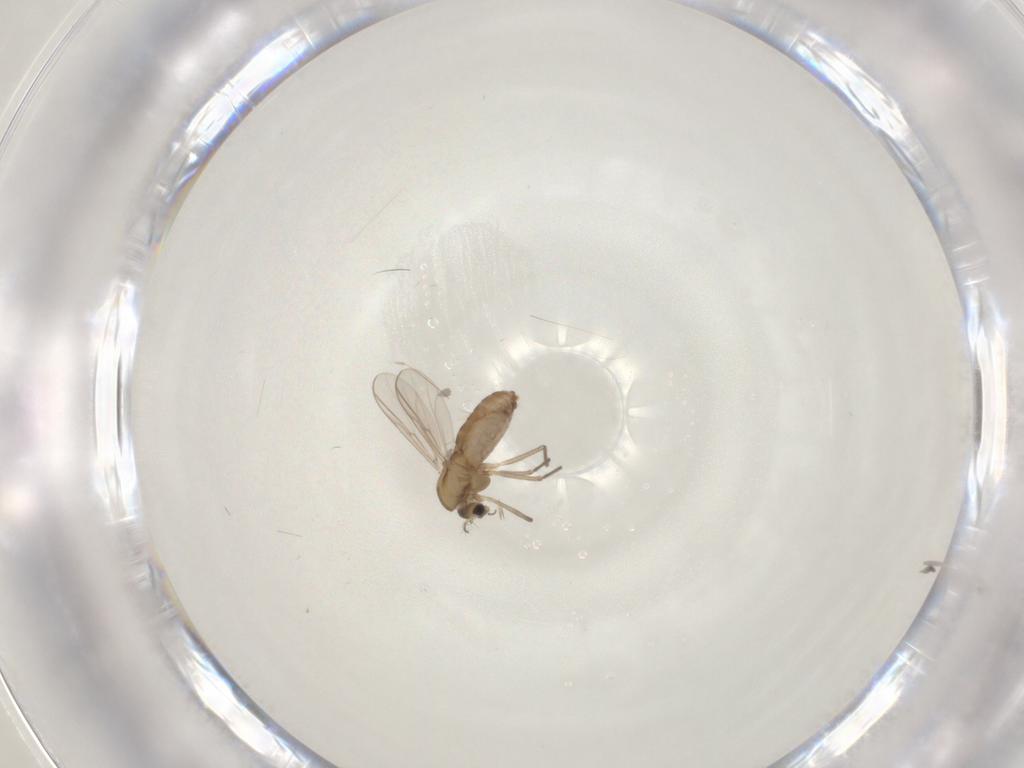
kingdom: Animalia
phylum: Arthropoda
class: Insecta
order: Diptera
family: Chironomidae
